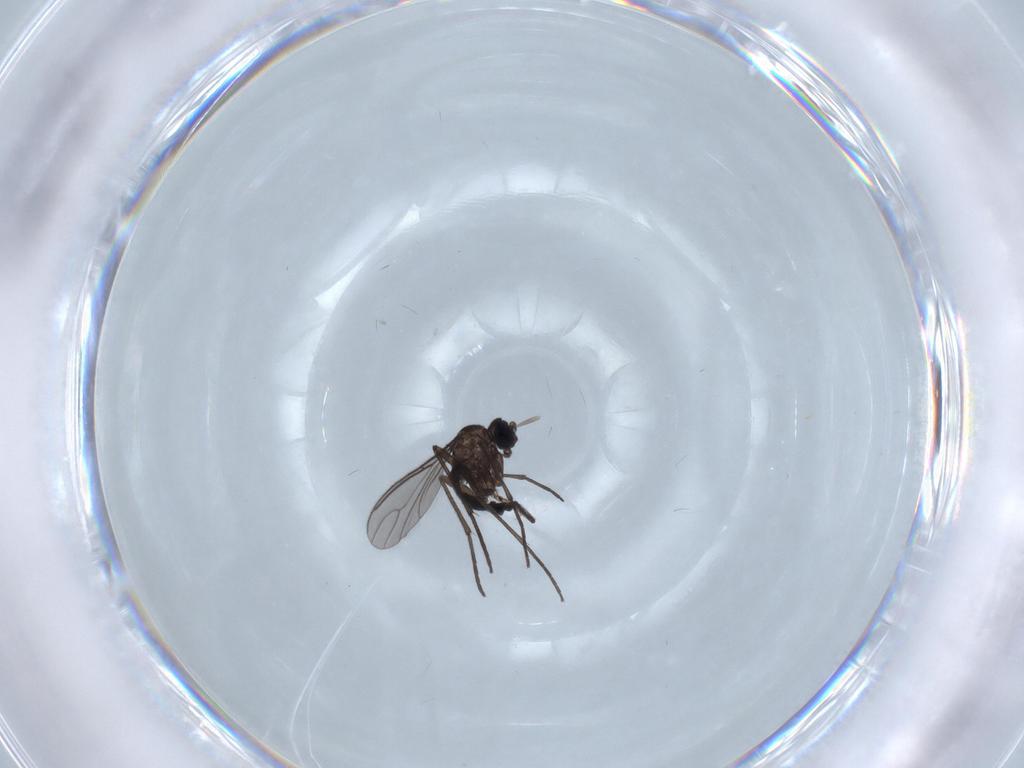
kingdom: Animalia
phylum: Arthropoda
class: Insecta
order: Diptera
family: Sciaridae
